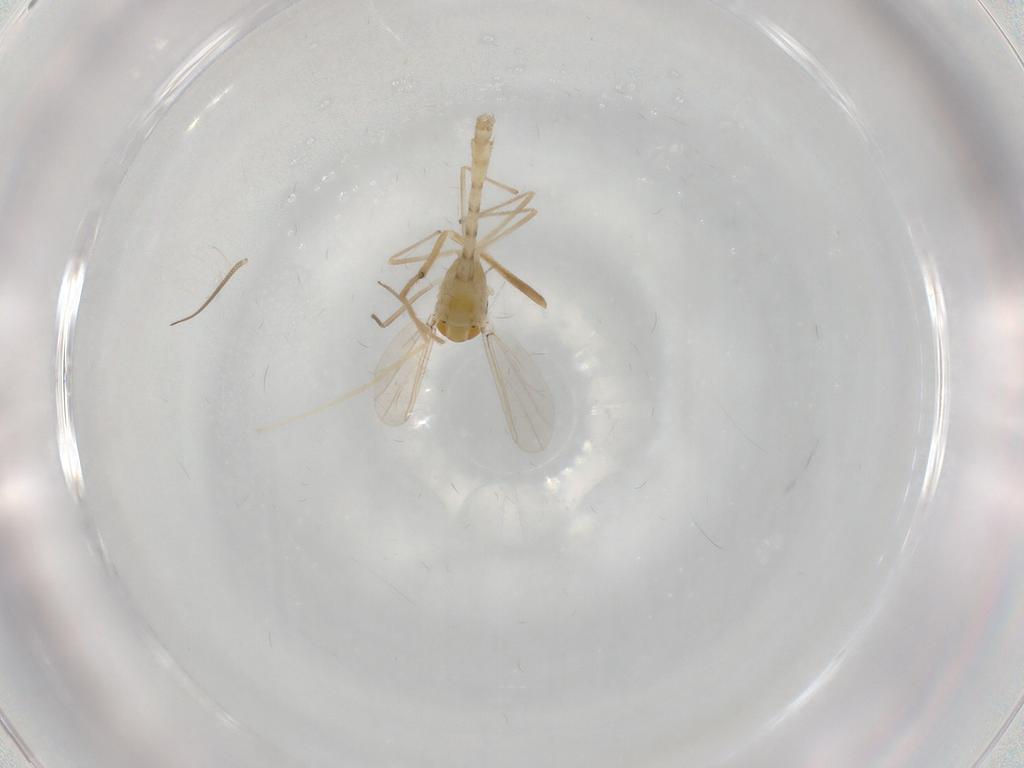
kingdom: Animalia
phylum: Arthropoda
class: Insecta
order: Diptera
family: Chironomidae
